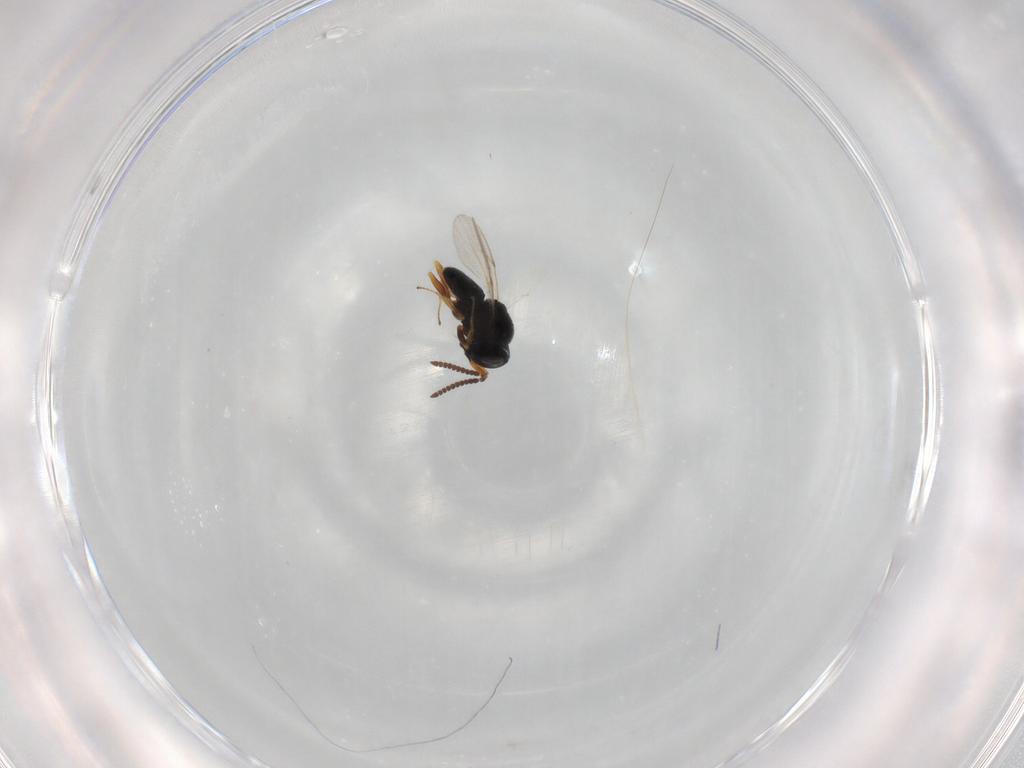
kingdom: Animalia
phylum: Arthropoda
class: Insecta
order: Hymenoptera
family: Scelionidae
